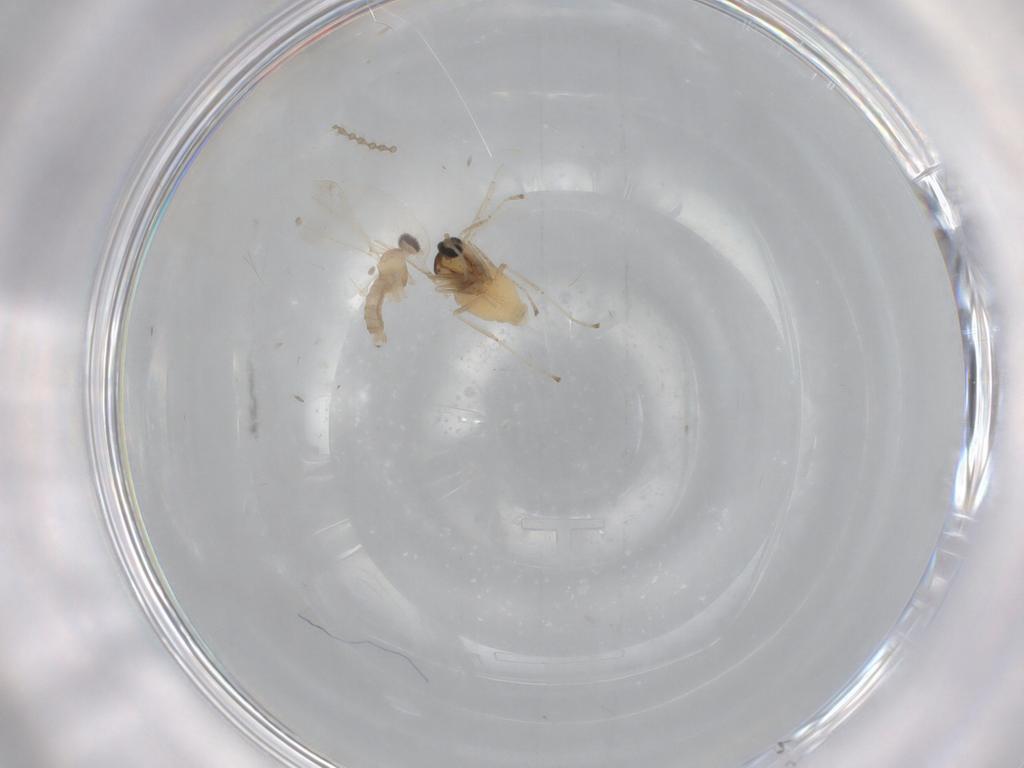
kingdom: Animalia
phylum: Arthropoda
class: Insecta
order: Diptera
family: Cecidomyiidae
